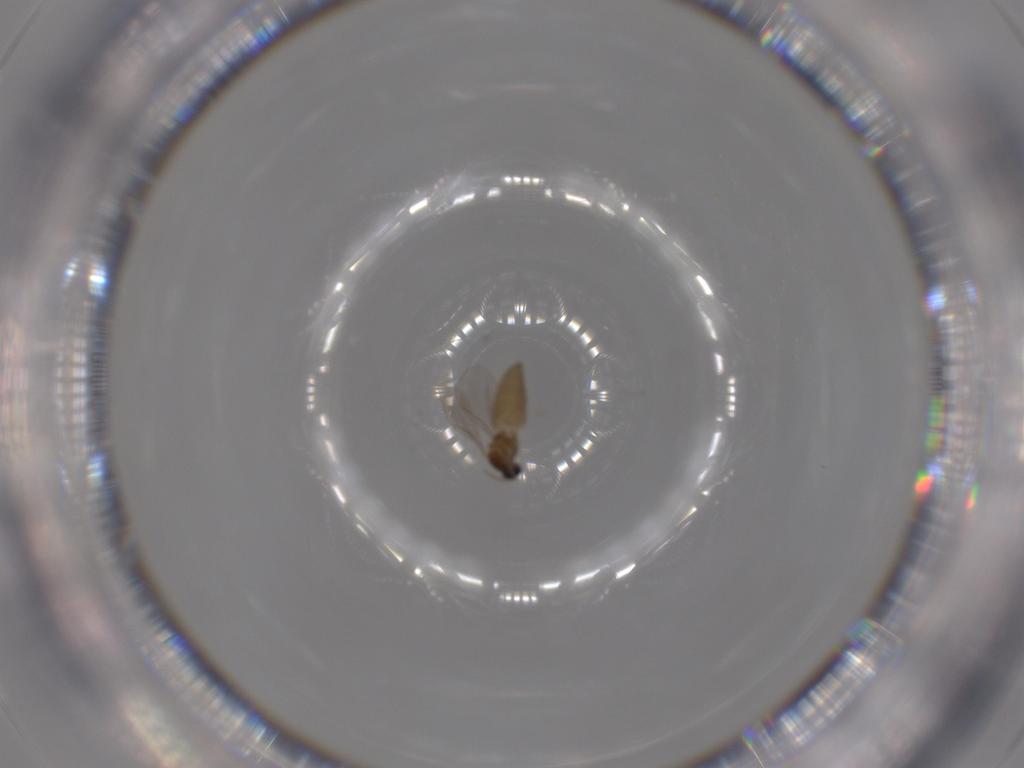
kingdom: Animalia
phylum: Arthropoda
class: Insecta
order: Diptera
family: Cecidomyiidae
